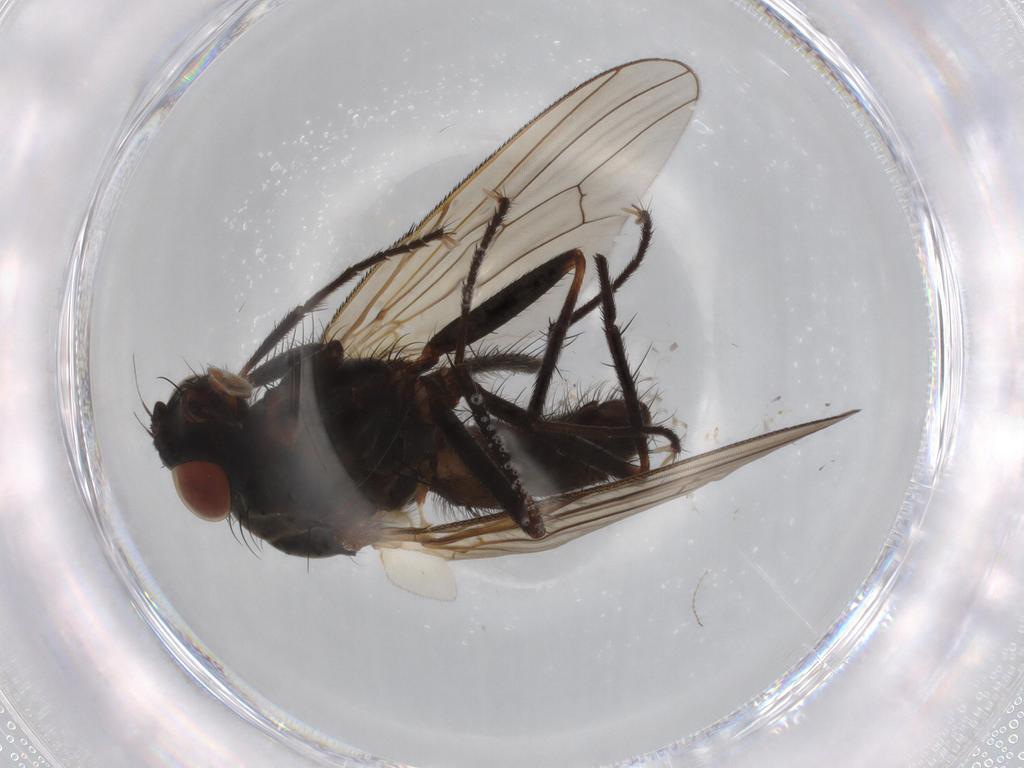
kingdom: Animalia
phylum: Arthropoda
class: Insecta
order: Diptera
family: Anthomyiidae
